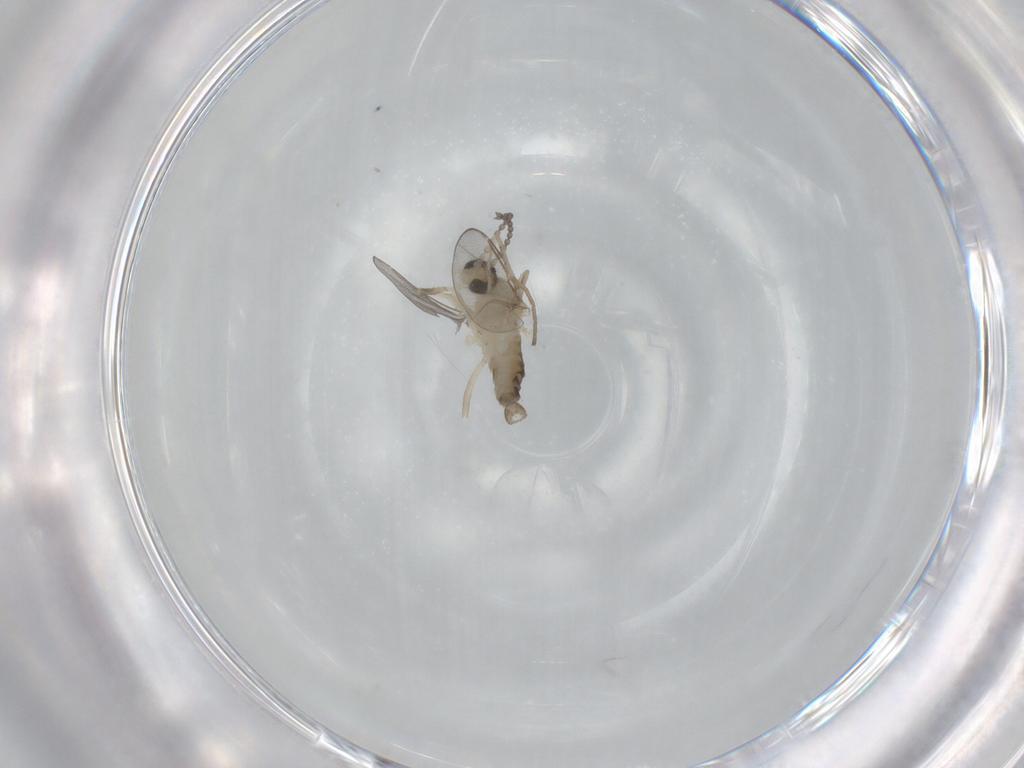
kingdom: Animalia
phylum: Arthropoda
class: Insecta
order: Diptera
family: Cecidomyiidae
